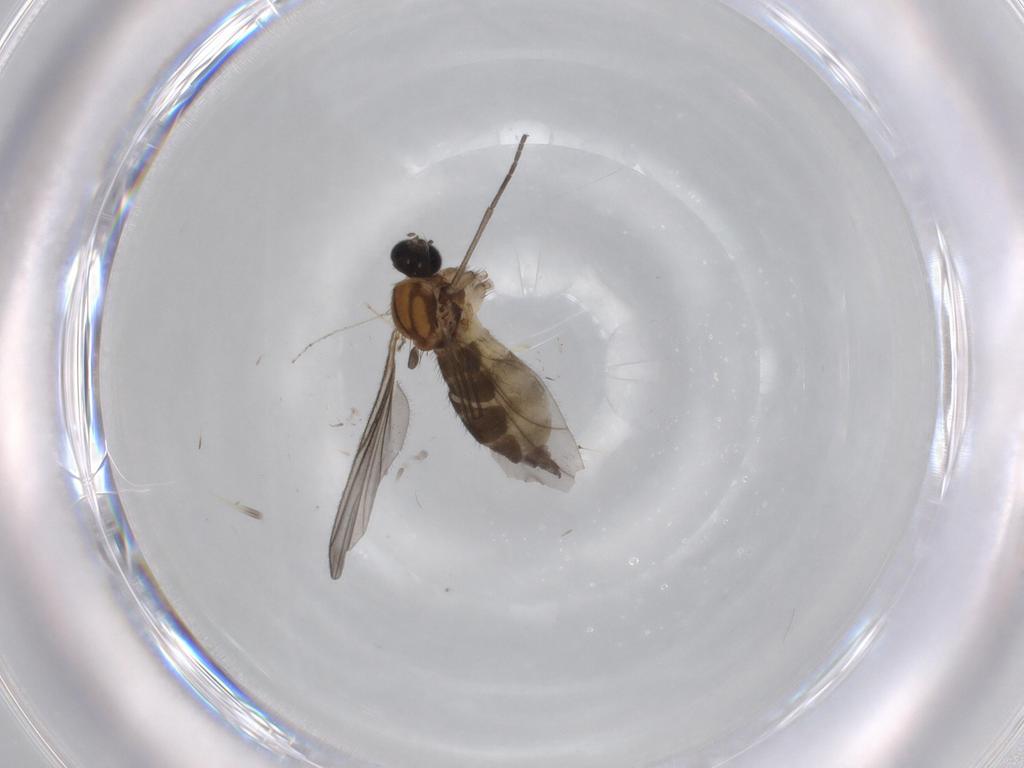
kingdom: Animalia
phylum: Arthropoda
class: Insecta
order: Diptera
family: Sciaridae
